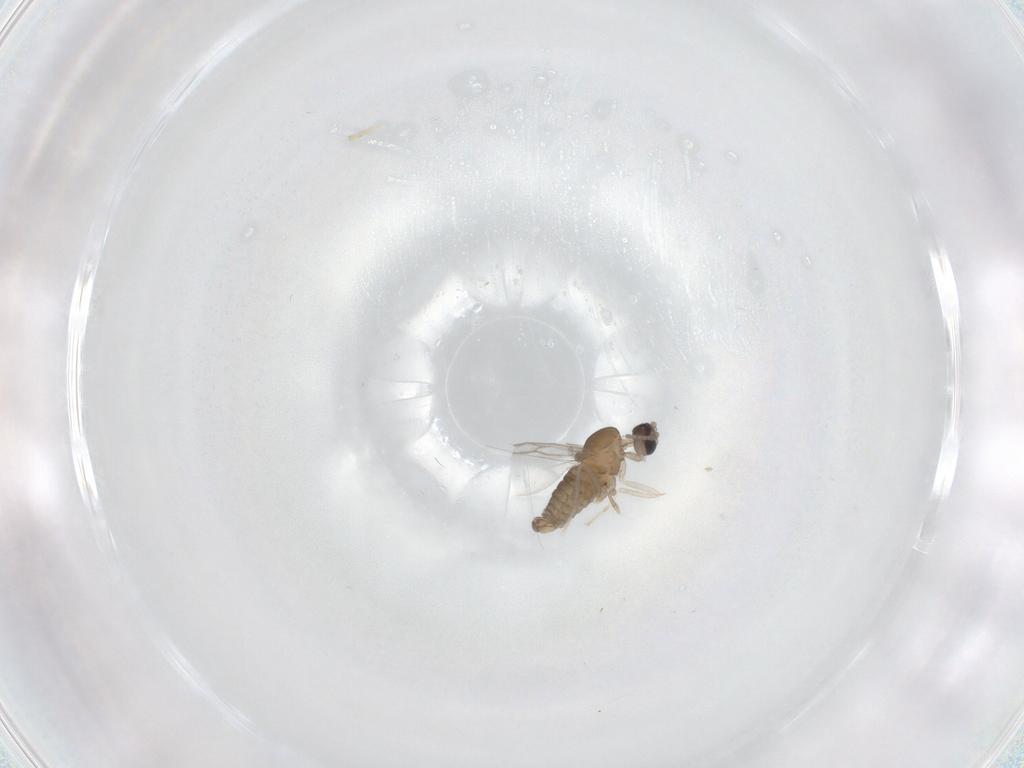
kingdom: Animalia
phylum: Arthropoda
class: Insecta
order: Diptera
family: Cecidomyiidae
